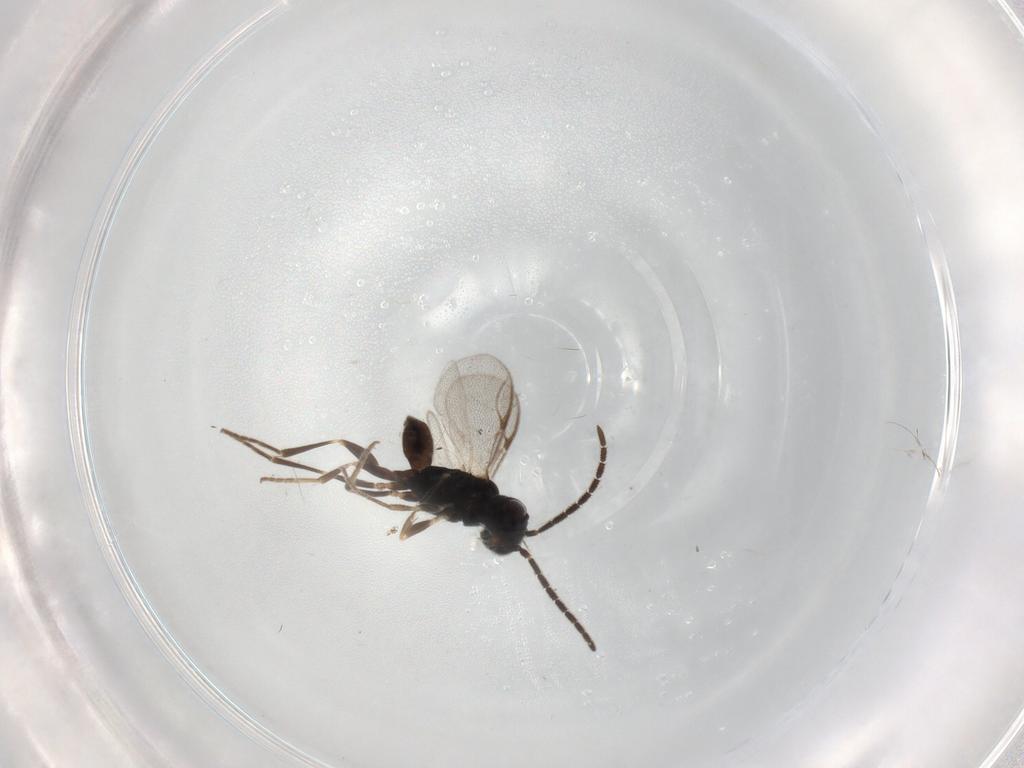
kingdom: Animalia
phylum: Arthropoda
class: Insecta
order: Hymenoptera
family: Dryinidae
